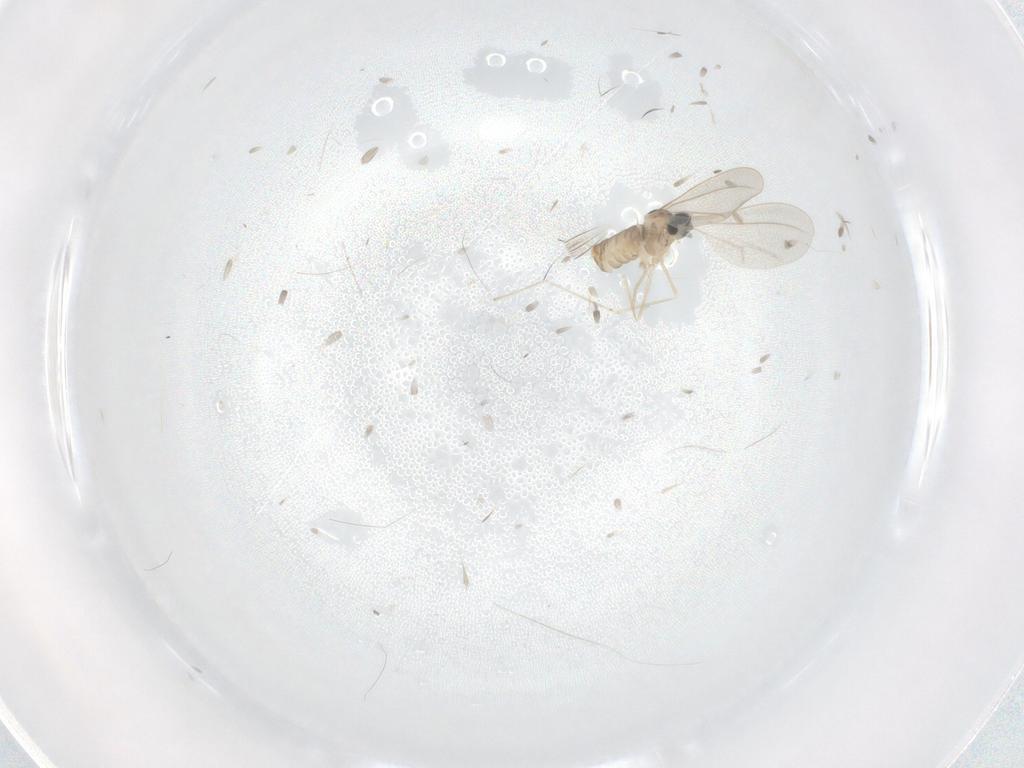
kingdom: Animalia
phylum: Arthropoda
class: Insecta
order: Diptera
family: Cecidomyiidae
